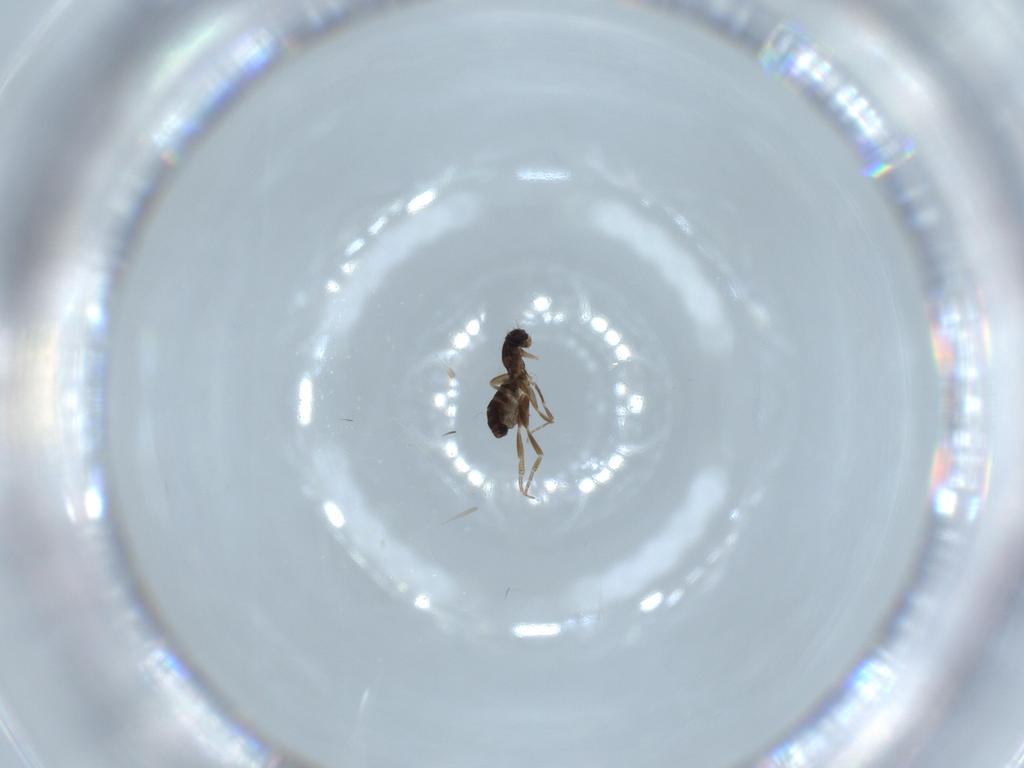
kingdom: Animalia
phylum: Arthropoda
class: Insecta
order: Diptera
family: Phoridae
